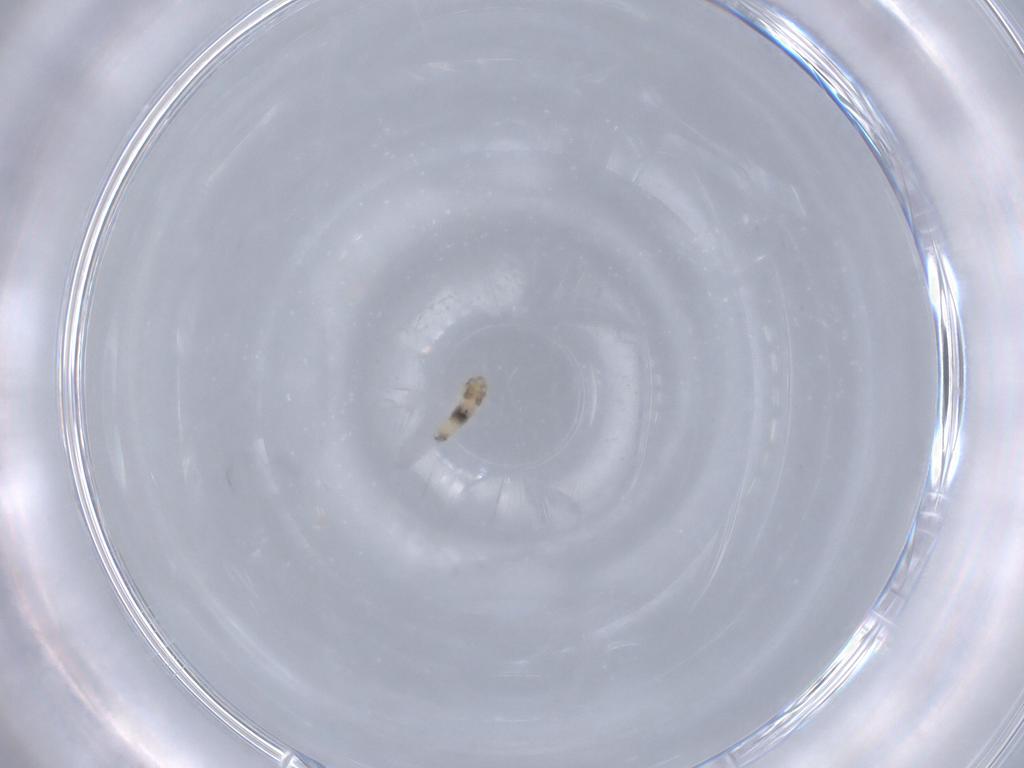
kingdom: Animalia
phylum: Arthropoda
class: Insecta
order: Diptera
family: Cecidomyiidae
